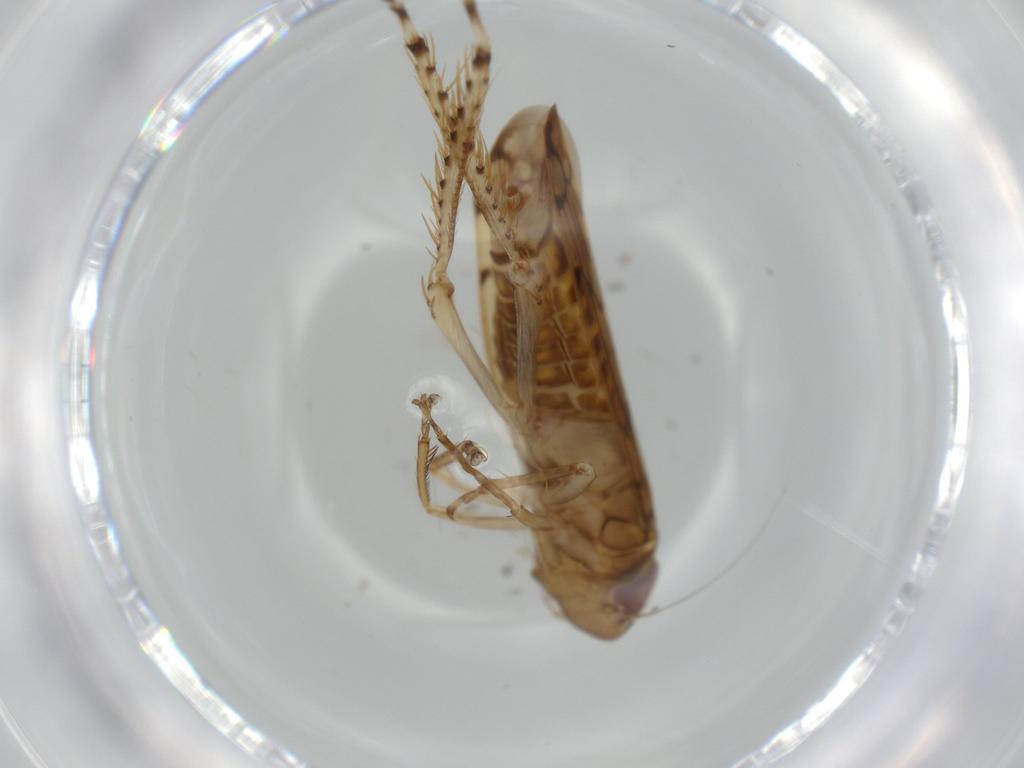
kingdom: Animalia
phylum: Arthropoda
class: Insecta
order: Hemiptera
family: Cicadellidae
